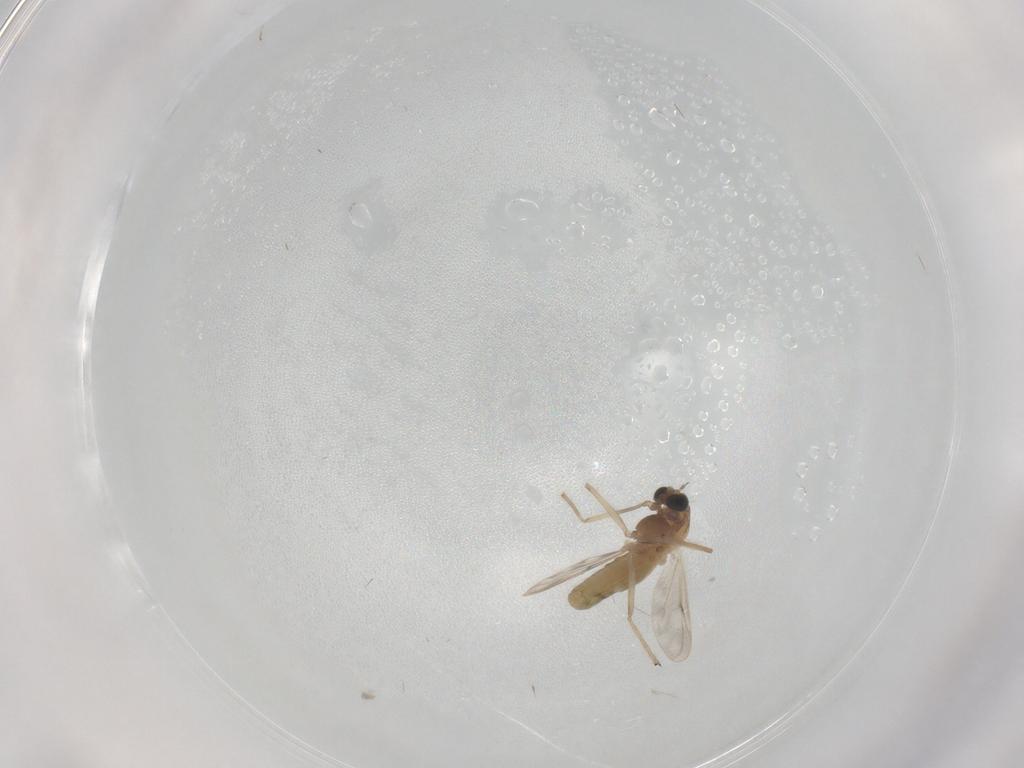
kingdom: Animalia
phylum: Arthropoda
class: Insecta
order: Diptera
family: Chironomidae
